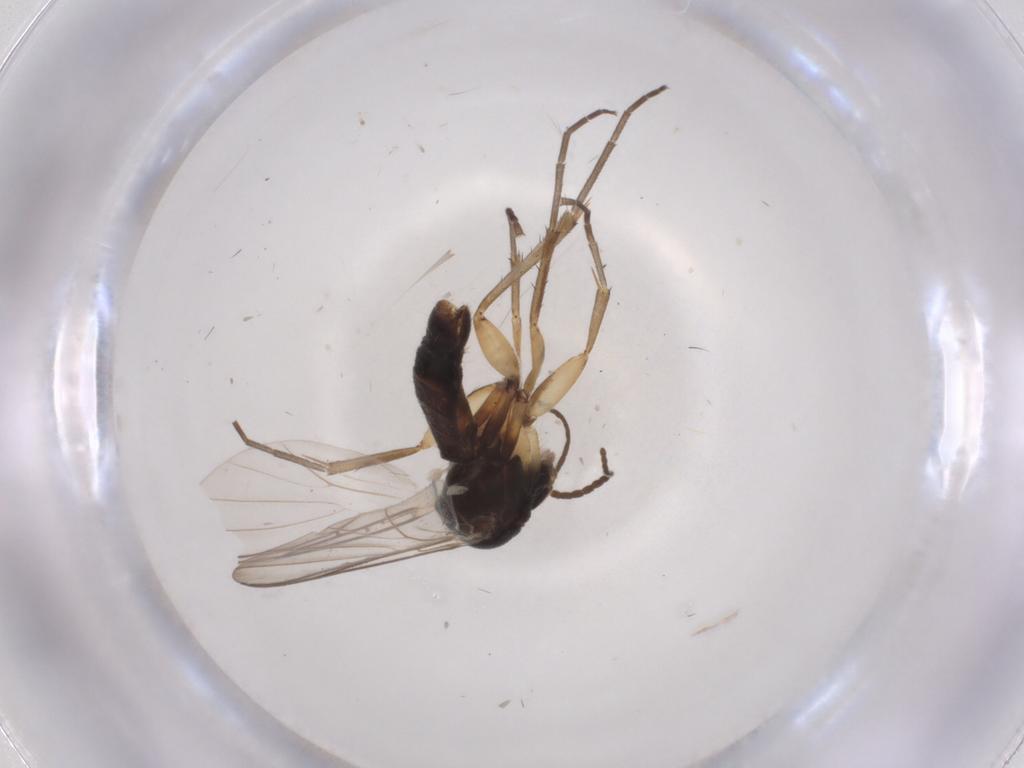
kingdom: Animalia
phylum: Arthropoda
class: Insecta
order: Diptera
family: Mycetophilidae
